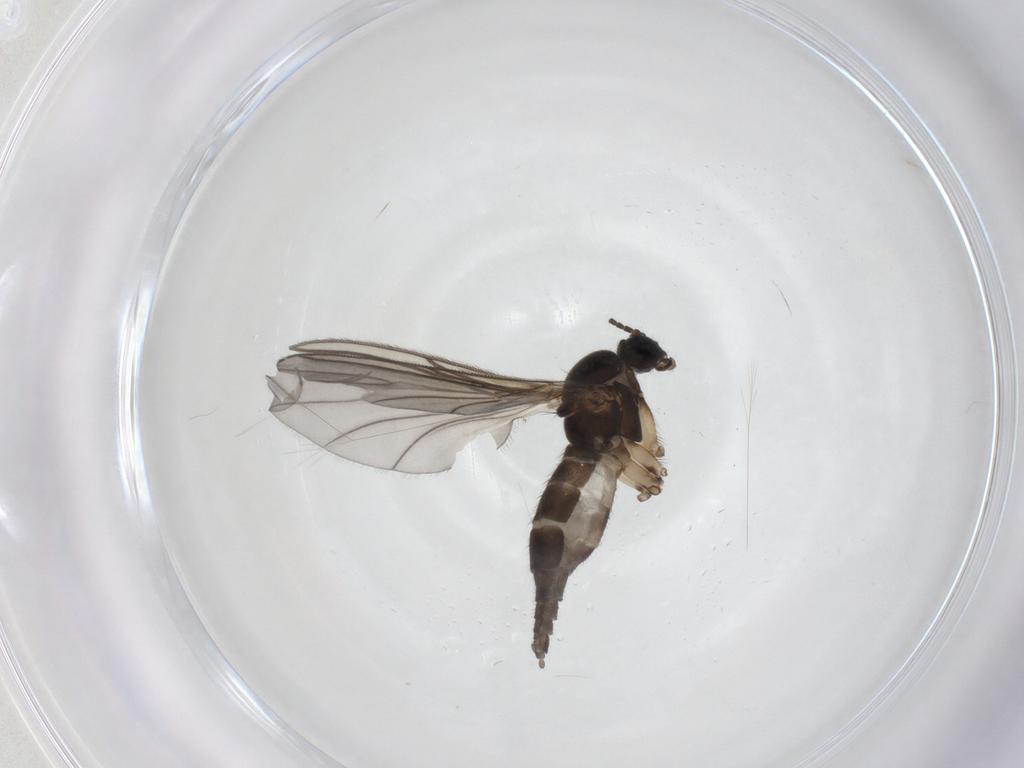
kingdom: Animalia
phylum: Arthropoda
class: Insecta
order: Diptera
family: Sciaridae
